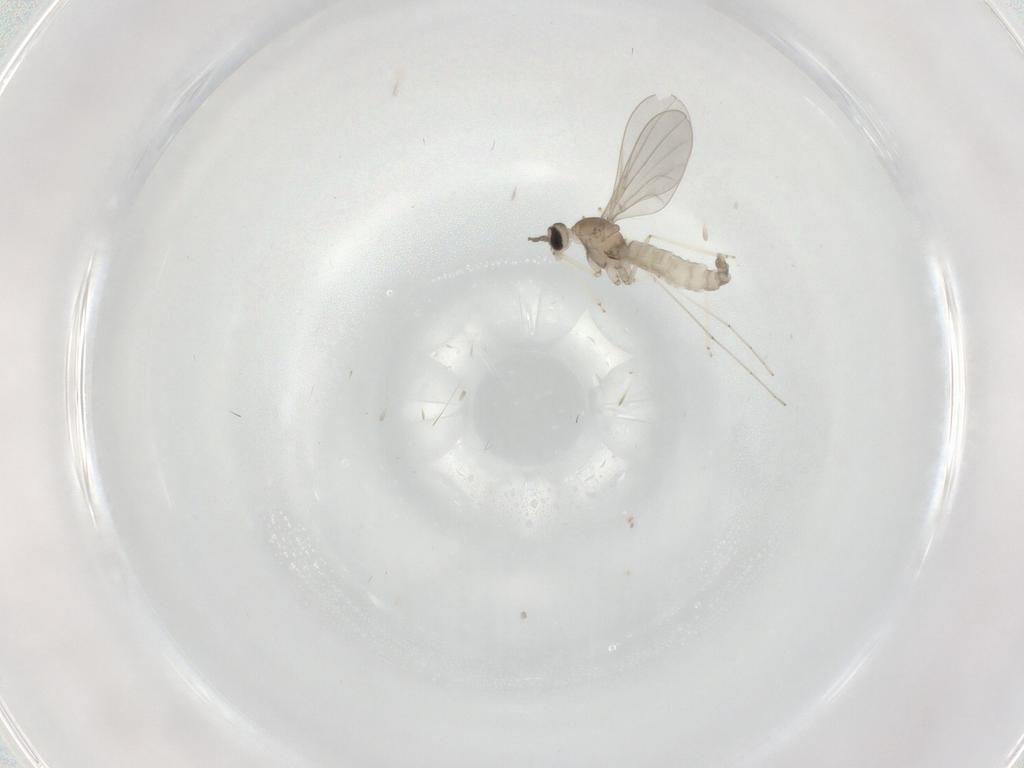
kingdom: Animalia
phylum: Arthropoda
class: Insecta
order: Diptera
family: Cecidomyiidae
